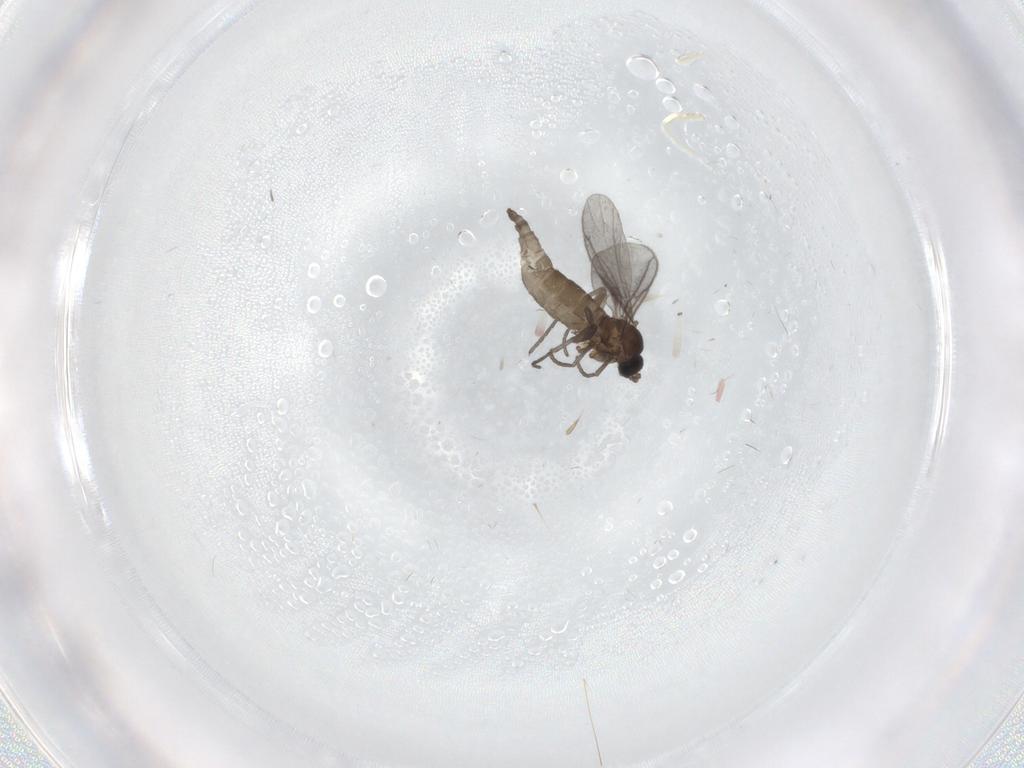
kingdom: Animalia
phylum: Arthropoda
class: Insecta
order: Diptera
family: Chironomidae
